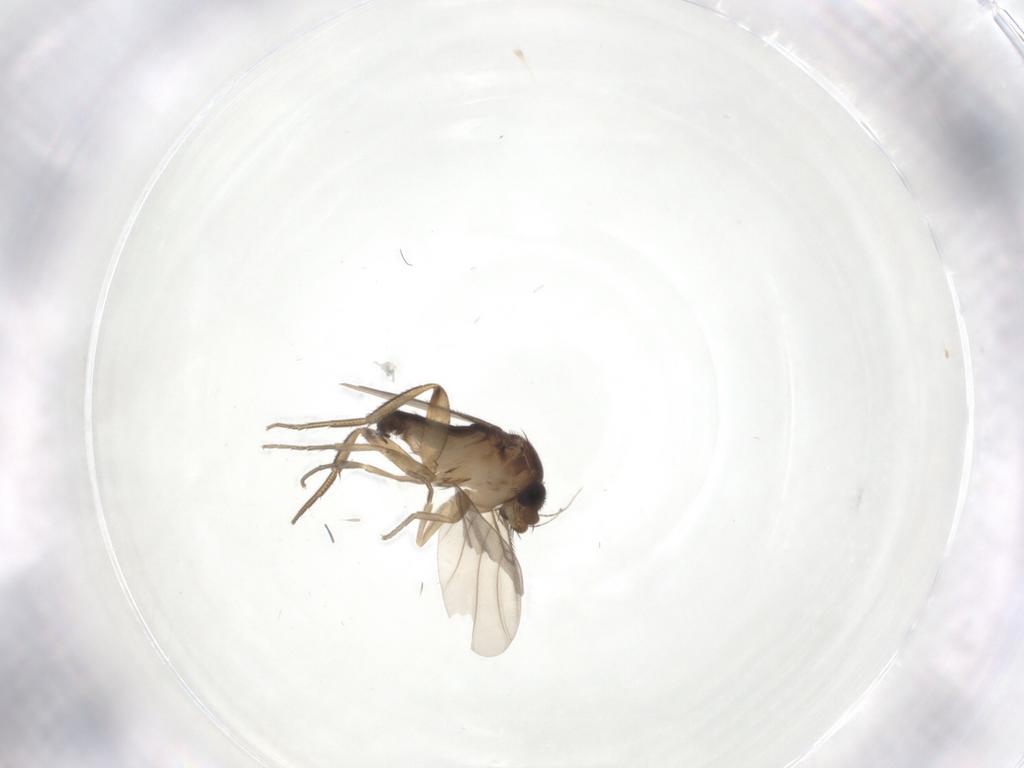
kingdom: Animalia
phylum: Arthropoda
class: Insecta
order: Diptera
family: Phoridae
